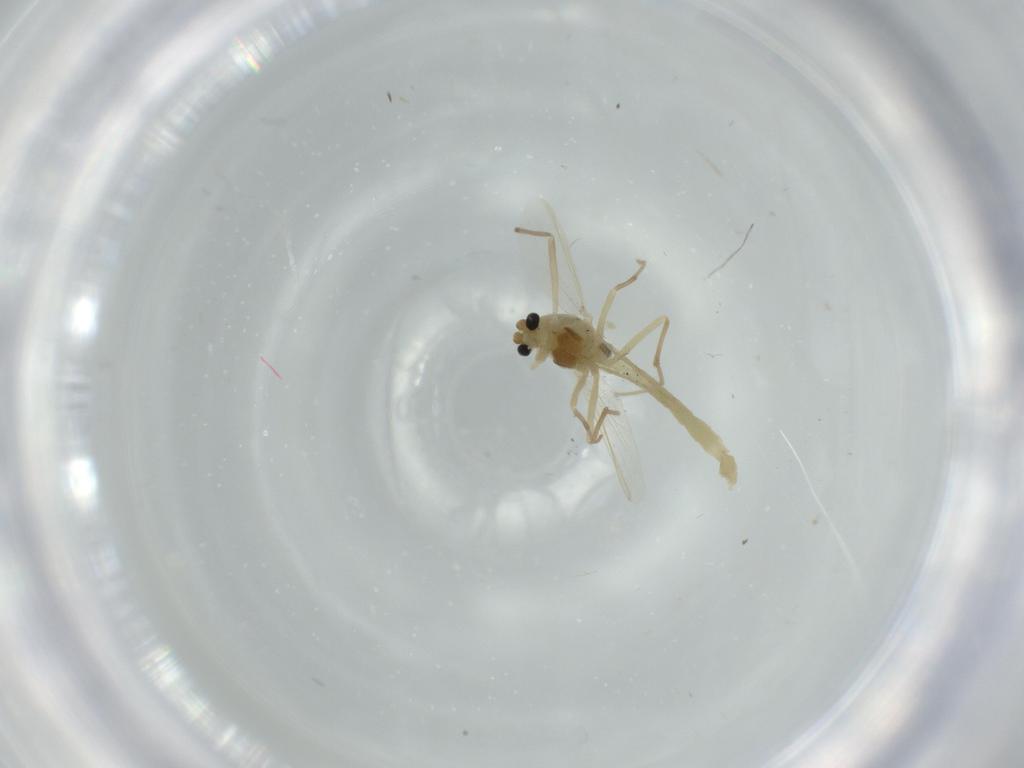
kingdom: Animalia
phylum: Arthropoda
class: Insecta
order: Diptera
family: Chironomidae
